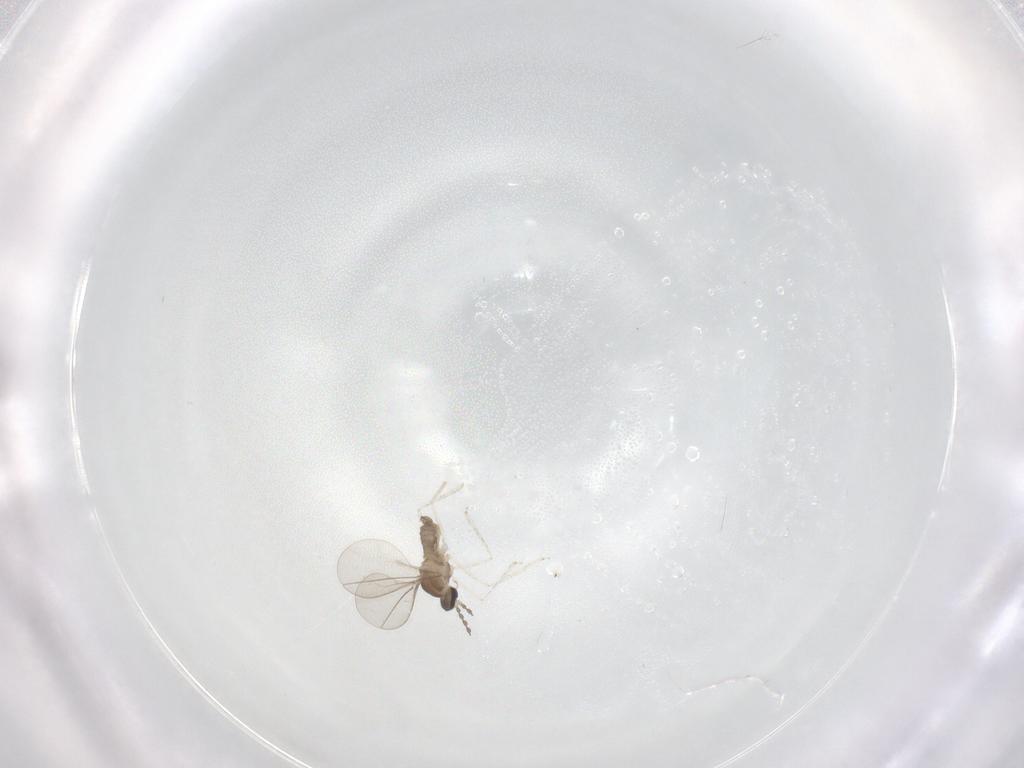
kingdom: Animalia
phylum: Arthropoda
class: Insecta
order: Diptera
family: Cecidomyiidae
